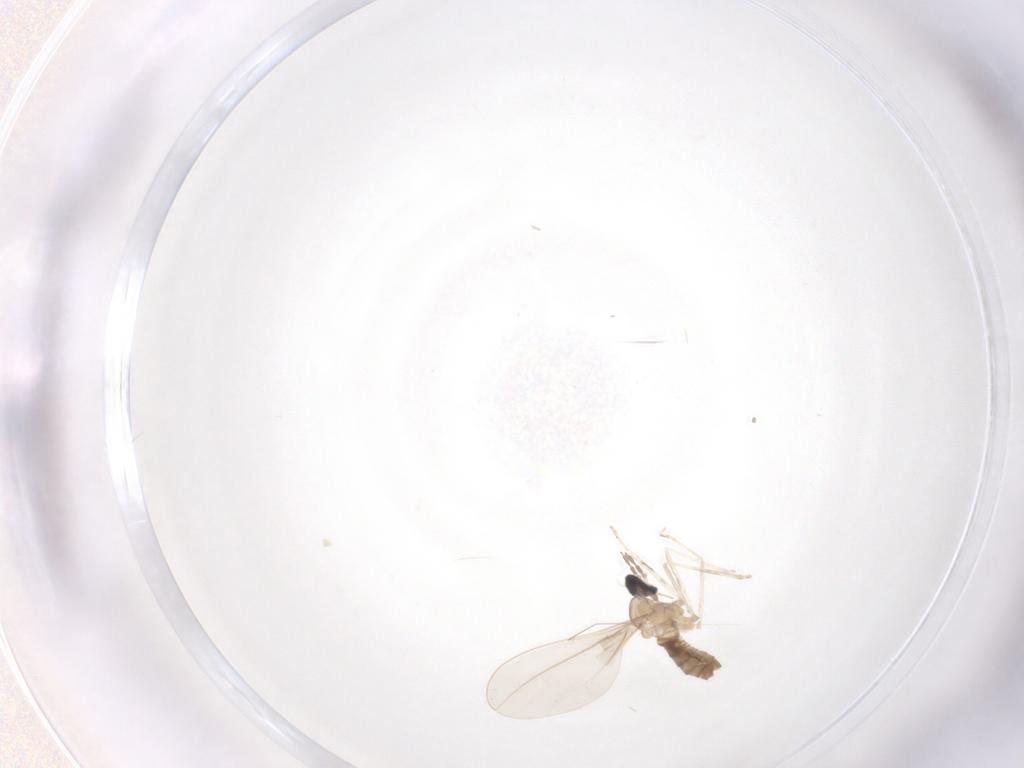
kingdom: Animalia
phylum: Arthropoda
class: Insecta
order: Diptera
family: Cecidomyiidae
